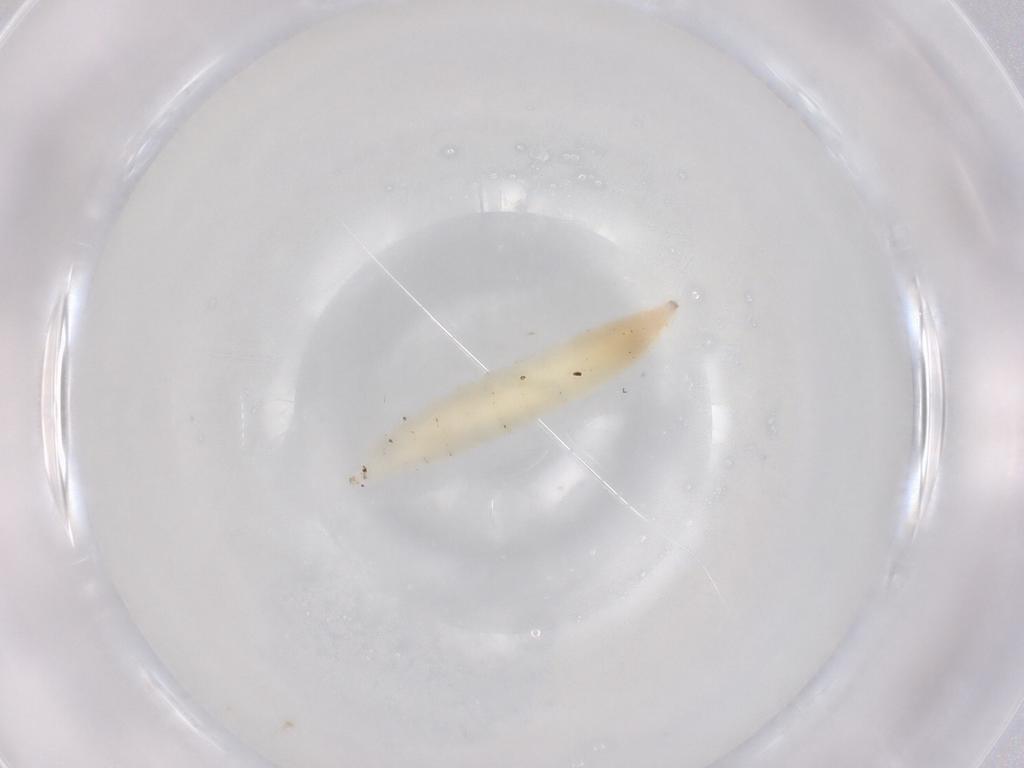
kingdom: Animalia
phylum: Arthropoda
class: Insecta
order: Diptera
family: Cecidomyiidae
